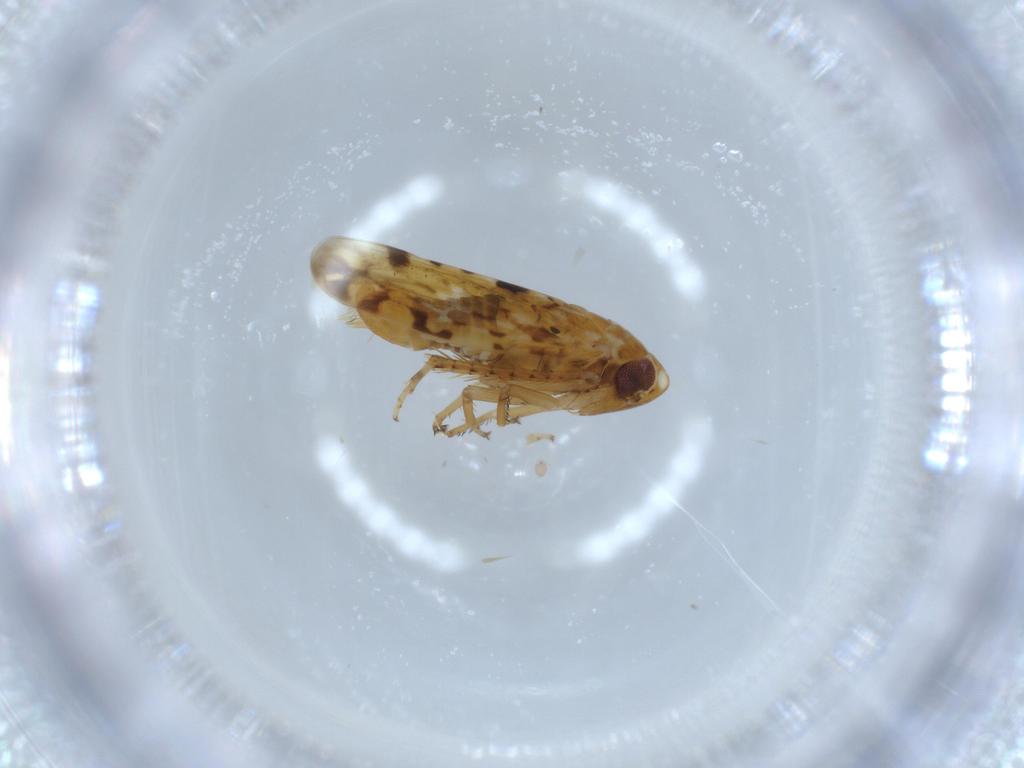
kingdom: Animalia
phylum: Arthropoda
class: Insecta
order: Hemiptera
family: Cicadellidae
